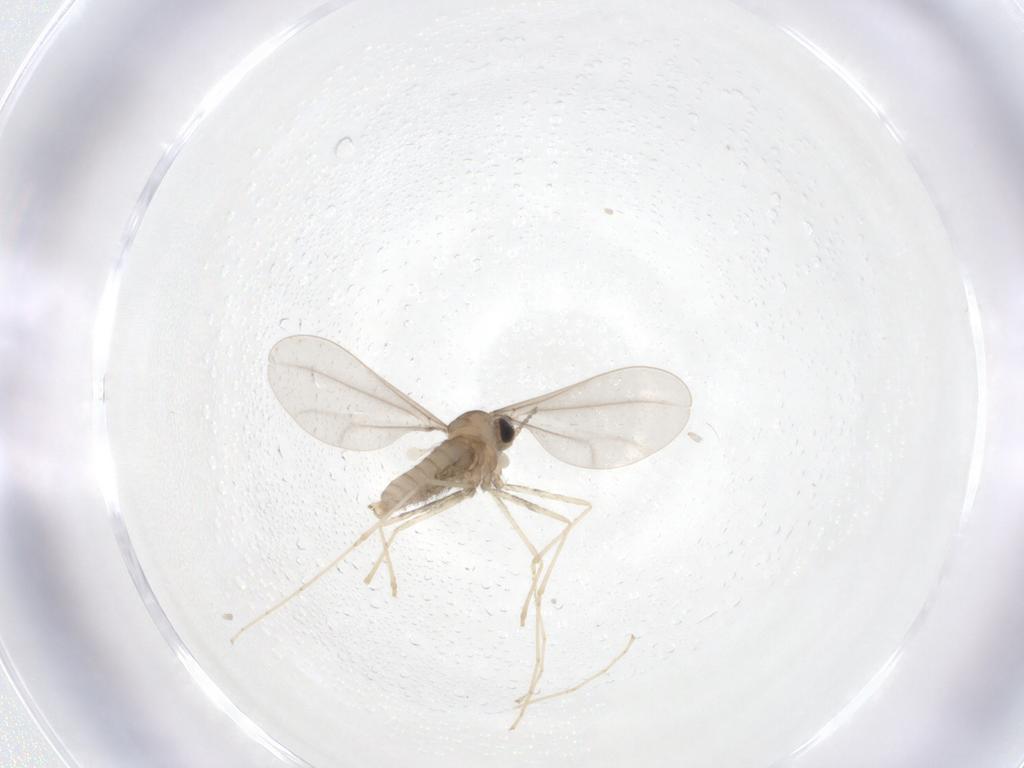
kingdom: Animalia
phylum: Arthropoda
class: Insecta
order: Diptera
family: Cecidomyiidae
